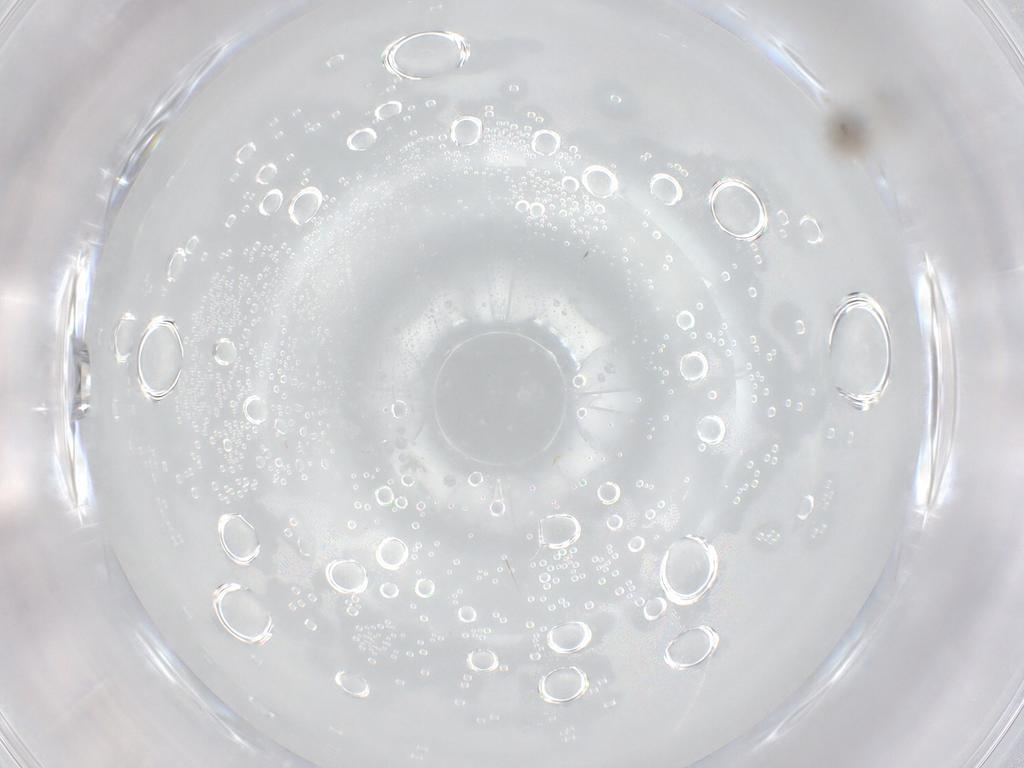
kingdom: Animalia
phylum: Arthropoda
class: Insecta
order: Diptera
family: Cecidomyiidae
